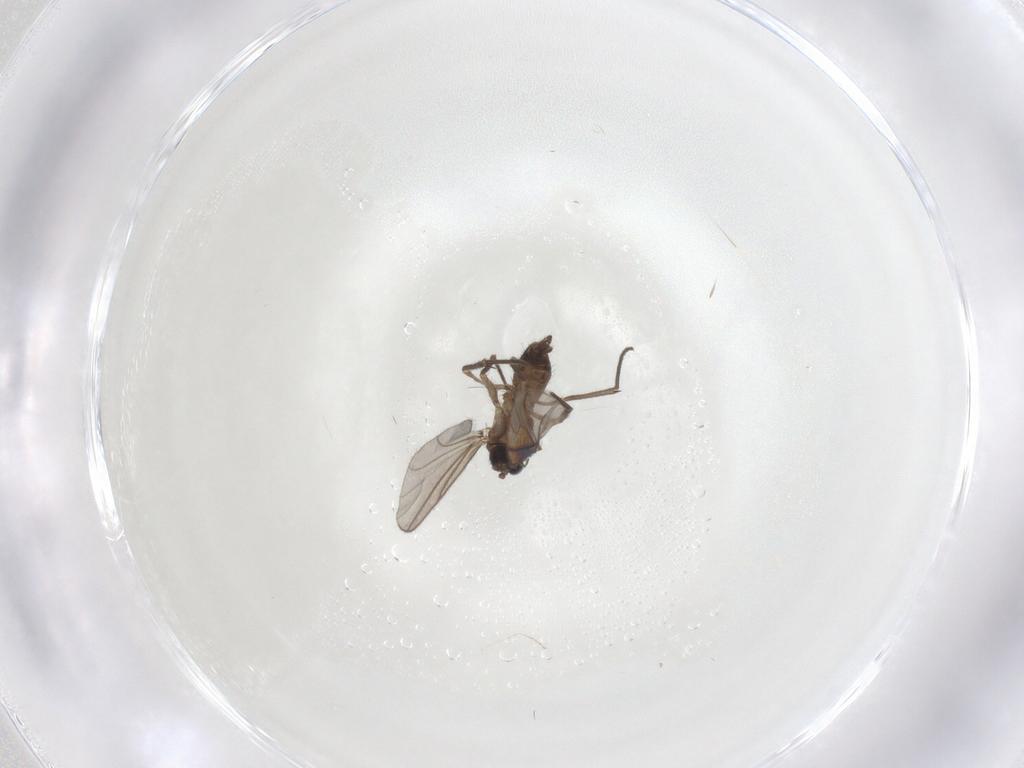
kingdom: Animalia
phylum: Arthropoda
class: Insecta
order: Diptera
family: Sciaridae
